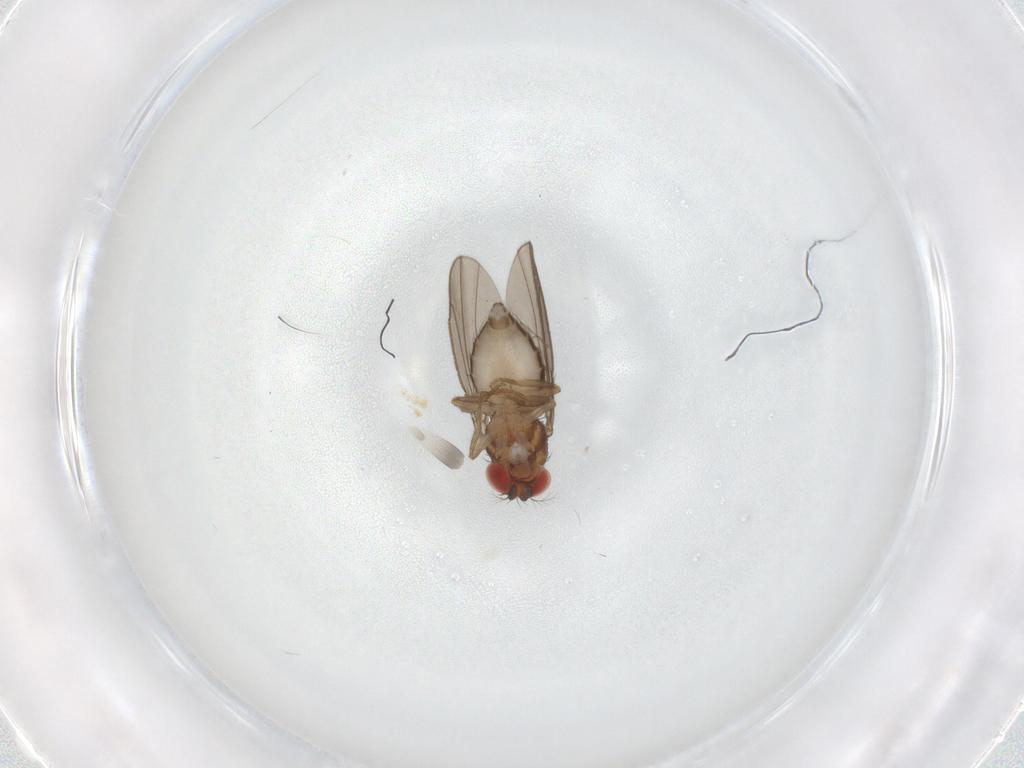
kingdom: Animalia
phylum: Arthropoda
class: Insecta
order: Diptera
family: Drosophilidae
